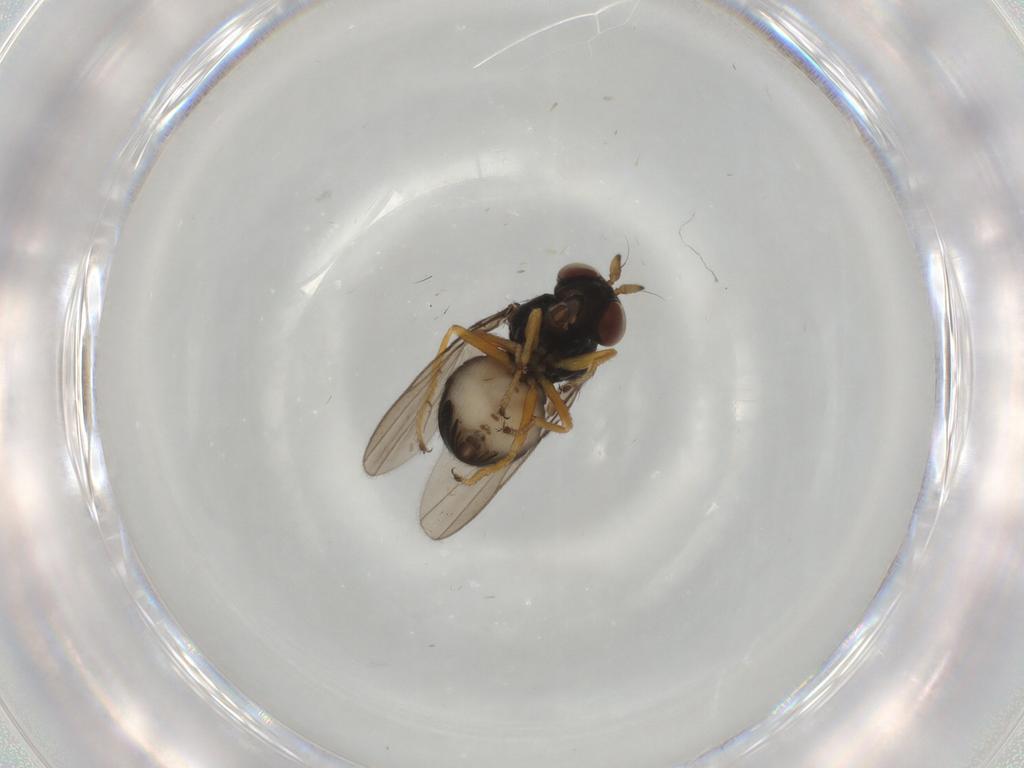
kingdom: Animalia
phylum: Arthropoda
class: Insecta
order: Diptera
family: Ephydridae
